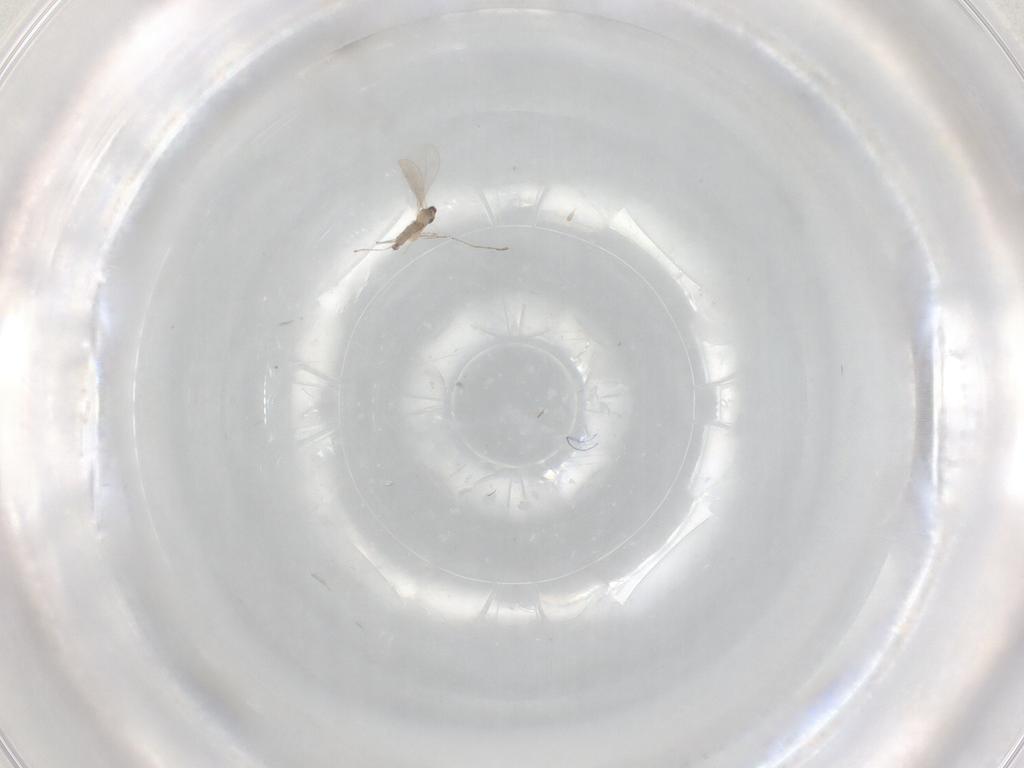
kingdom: Animalia
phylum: Arthropoda
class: Insecta
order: Diptera
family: Cecidomyiidae
